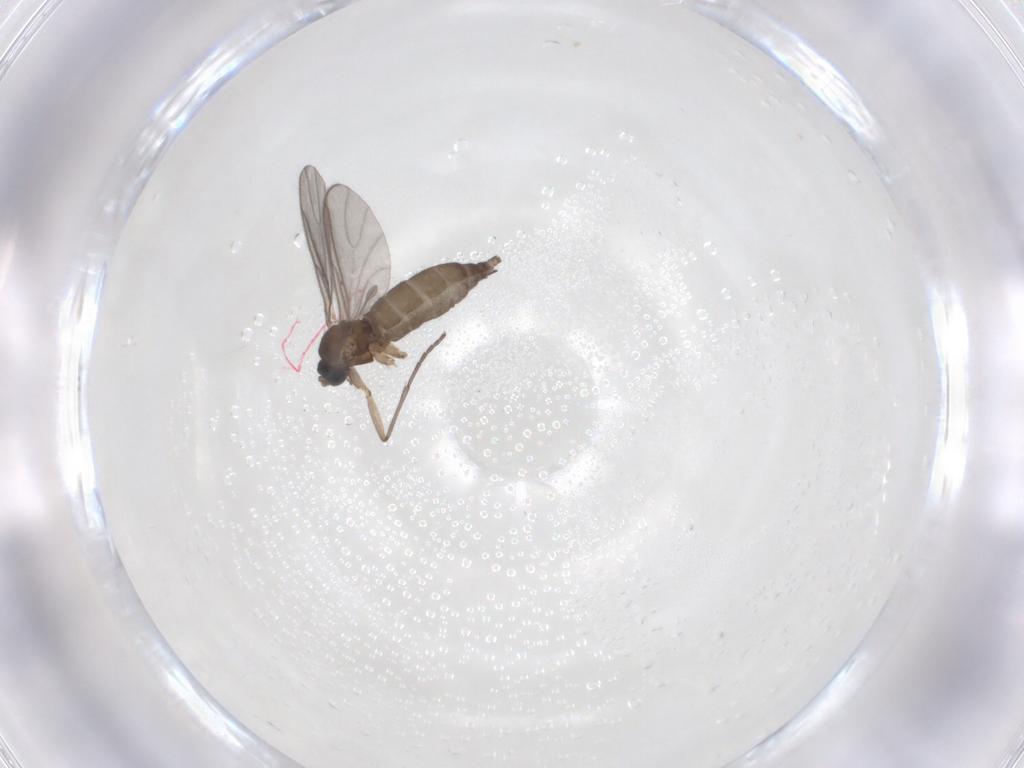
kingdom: Animalia
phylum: Arthropoda
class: Insecta
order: Diptera
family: Sciaridae
